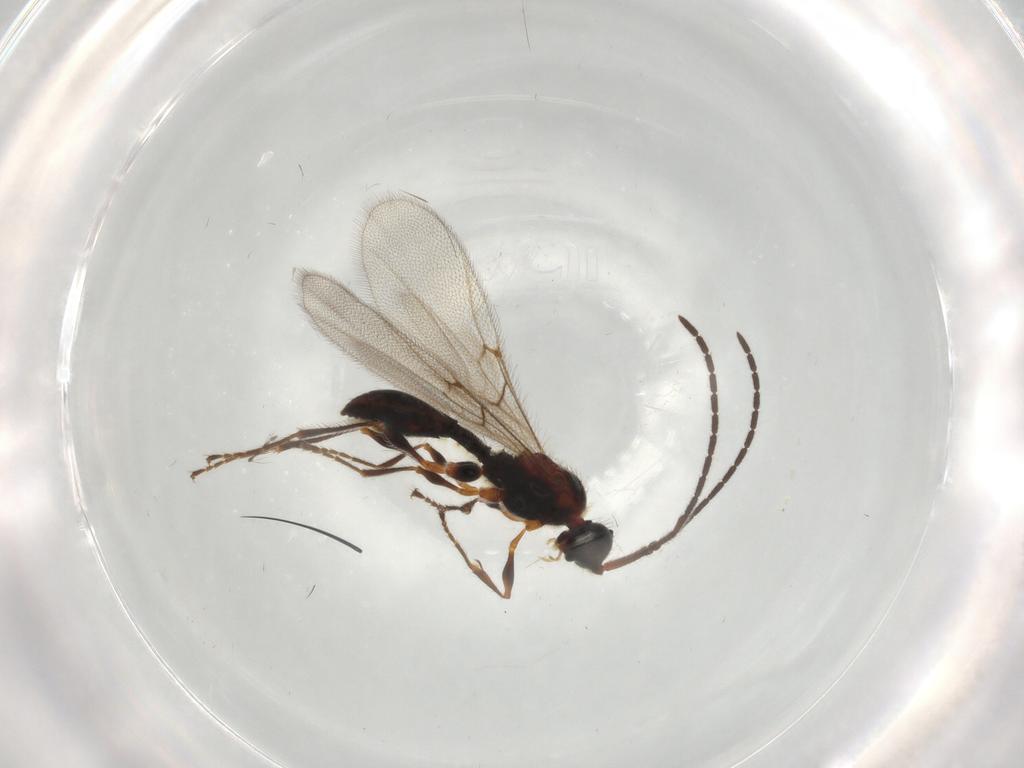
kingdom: Animalia
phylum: Arthropoda
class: Insecta
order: Hymenoptera
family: Diapriidae
